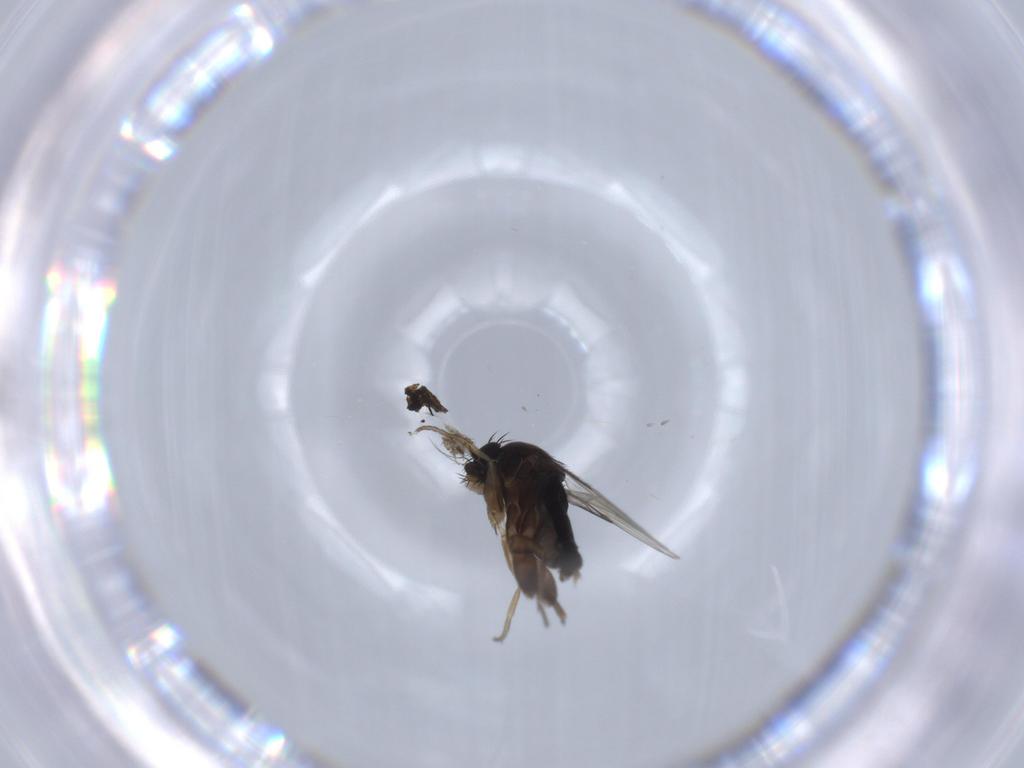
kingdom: Animalia
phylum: Arthropoda
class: Insecta
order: Diptera
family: Phoridae
